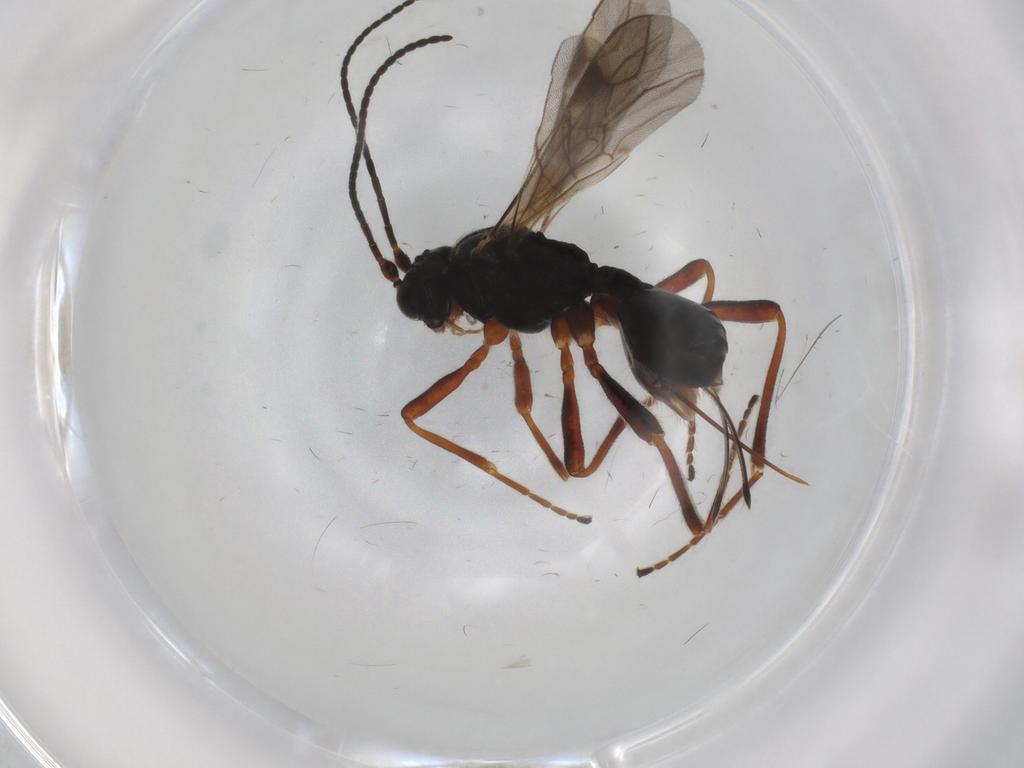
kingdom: Animalia
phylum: Arthropoda
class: Insecta
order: Hymenoptera
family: Braconidae
